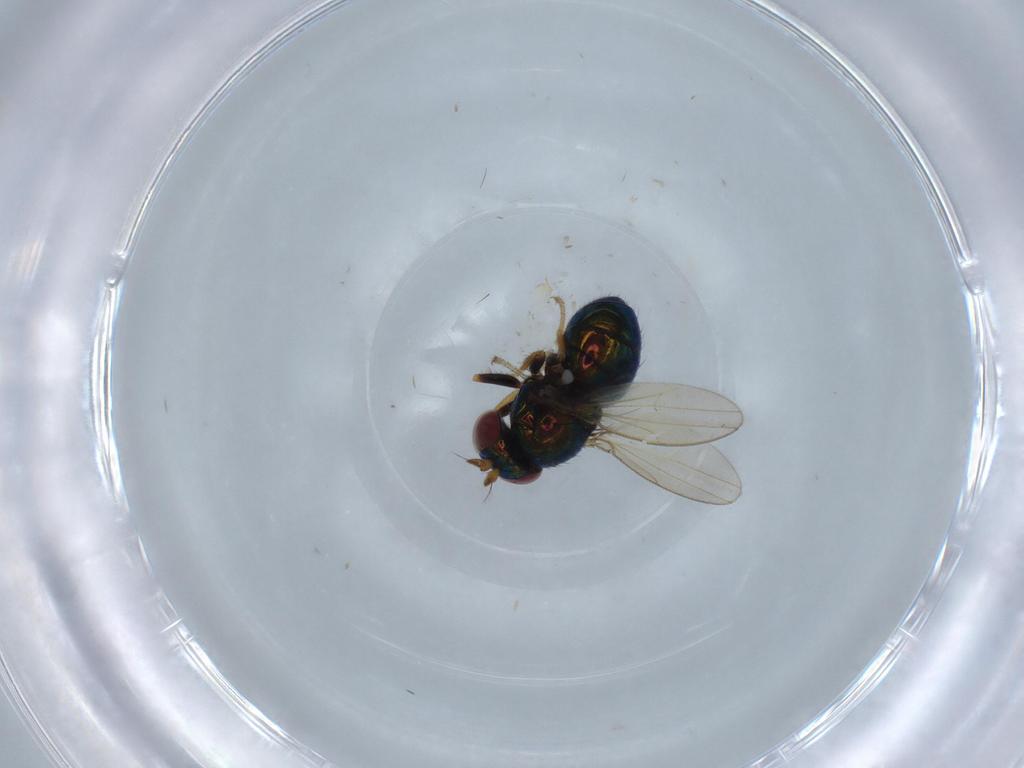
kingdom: Animalia
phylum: Arthropoda
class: Insecta
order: Diptera
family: Ephydridae
